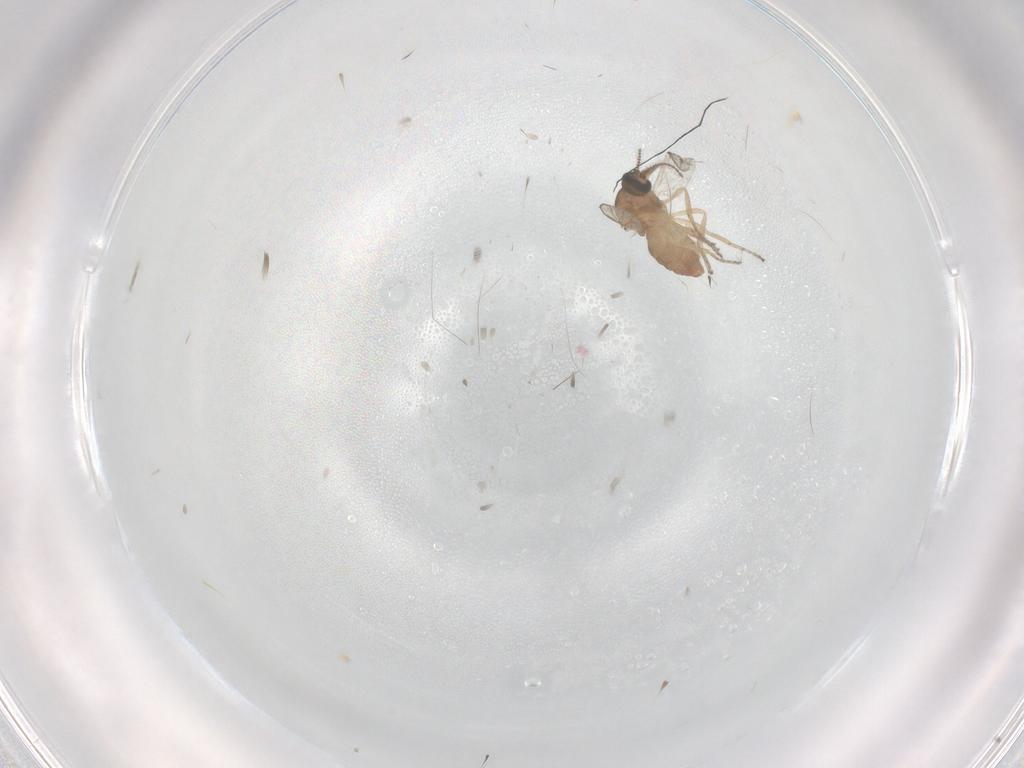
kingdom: Animalia
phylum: Arthropoda
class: Insecta
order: Diptera
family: Ceratopogonidae
